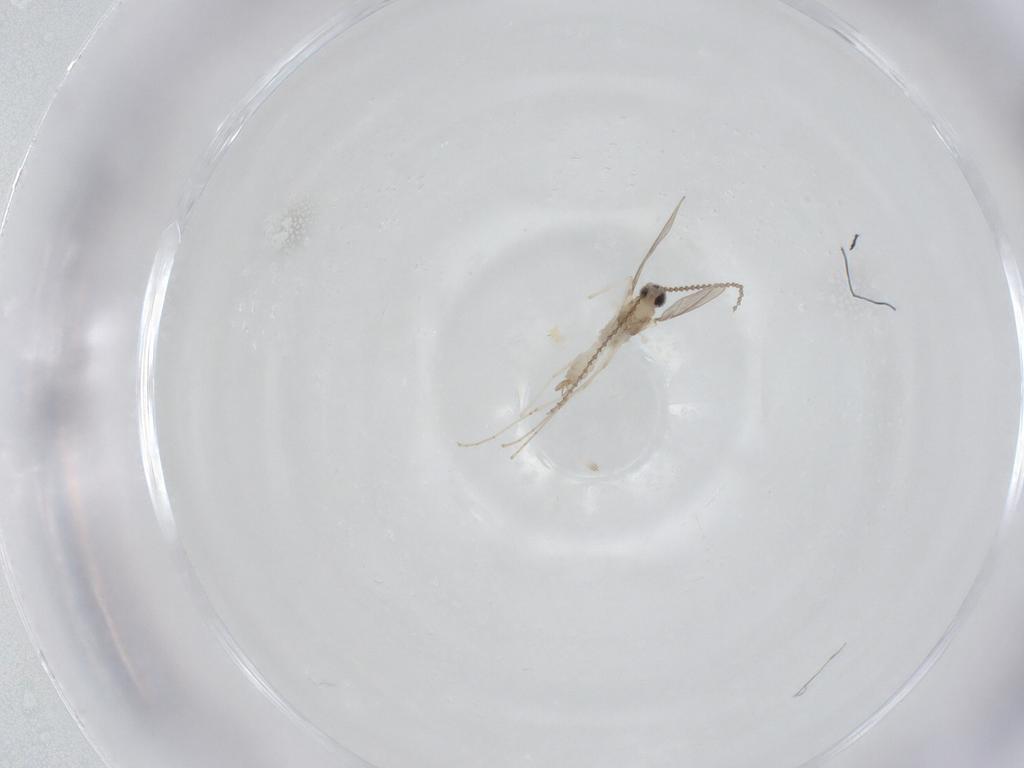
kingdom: Animalia
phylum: Arthropoda
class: Insecta
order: Diptera
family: Ceratopogonidae
